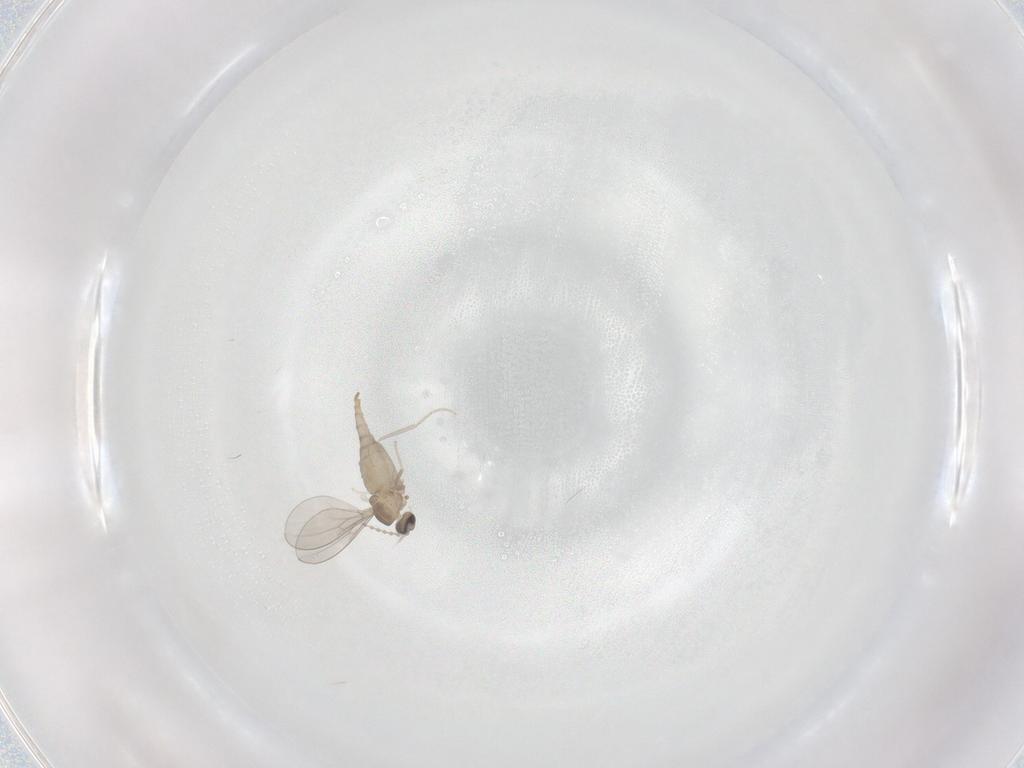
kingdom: Animalia
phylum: Arthropoda
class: Insecta
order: Diptera
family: Cecidomyiidae
